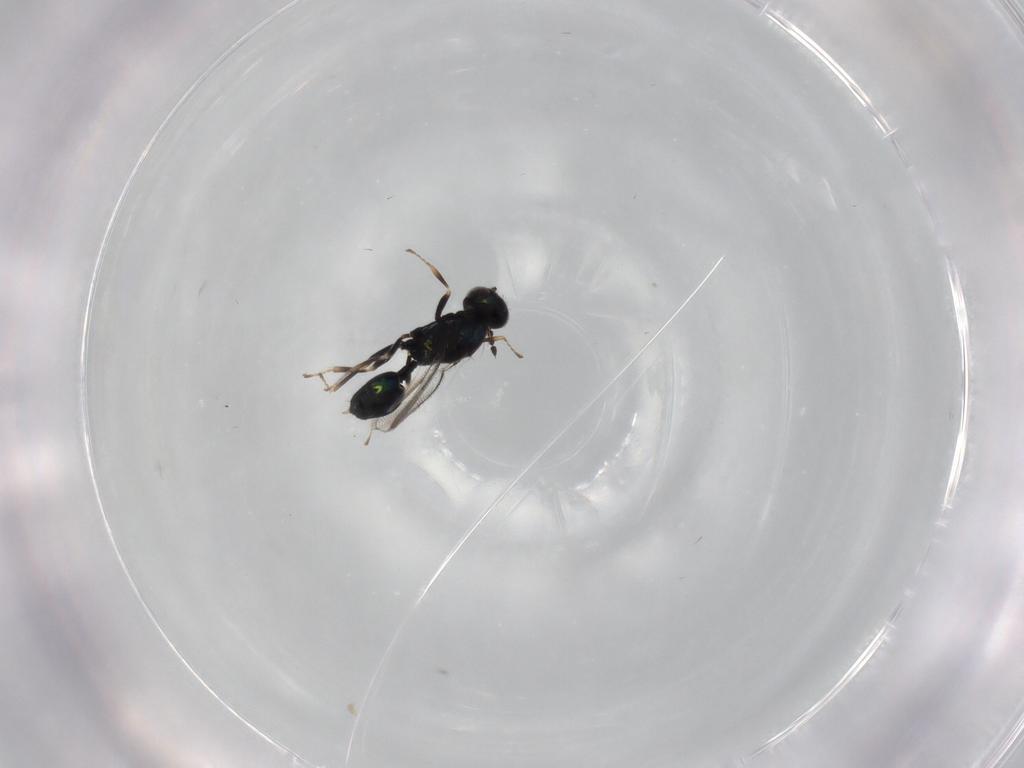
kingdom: Animalia
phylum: Arthropoda
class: Insecta
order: Hymenoptera
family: Eulophidae
